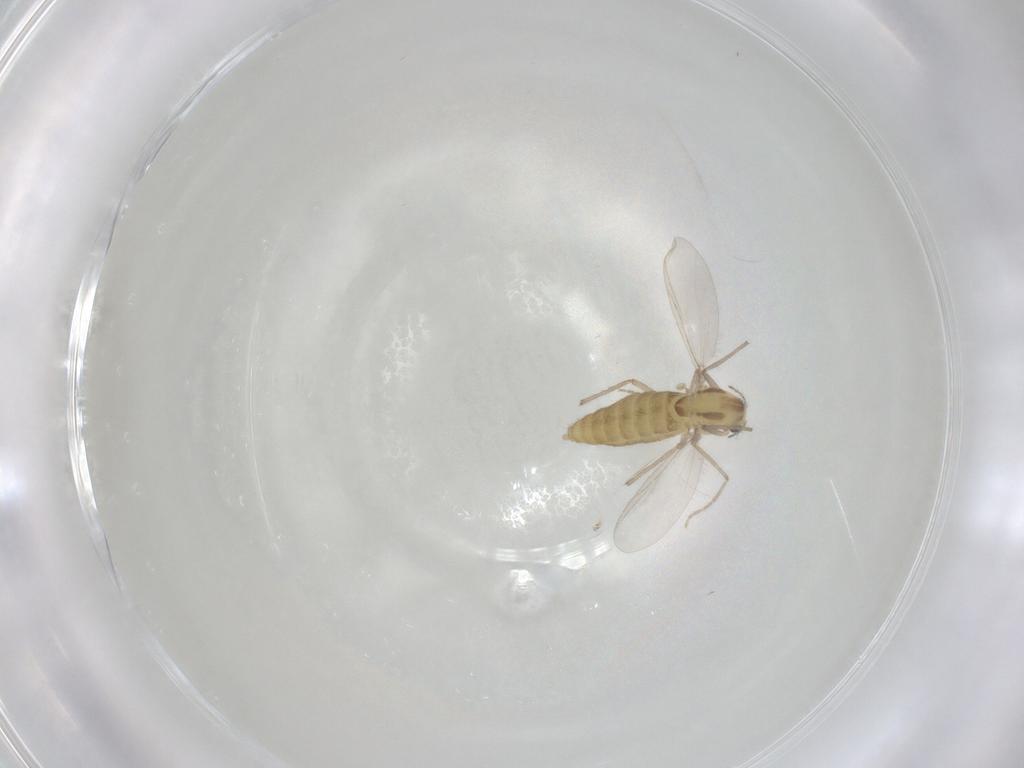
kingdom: Animalia
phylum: Arthropoda
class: Insecta
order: Diptera
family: Chironomidae
